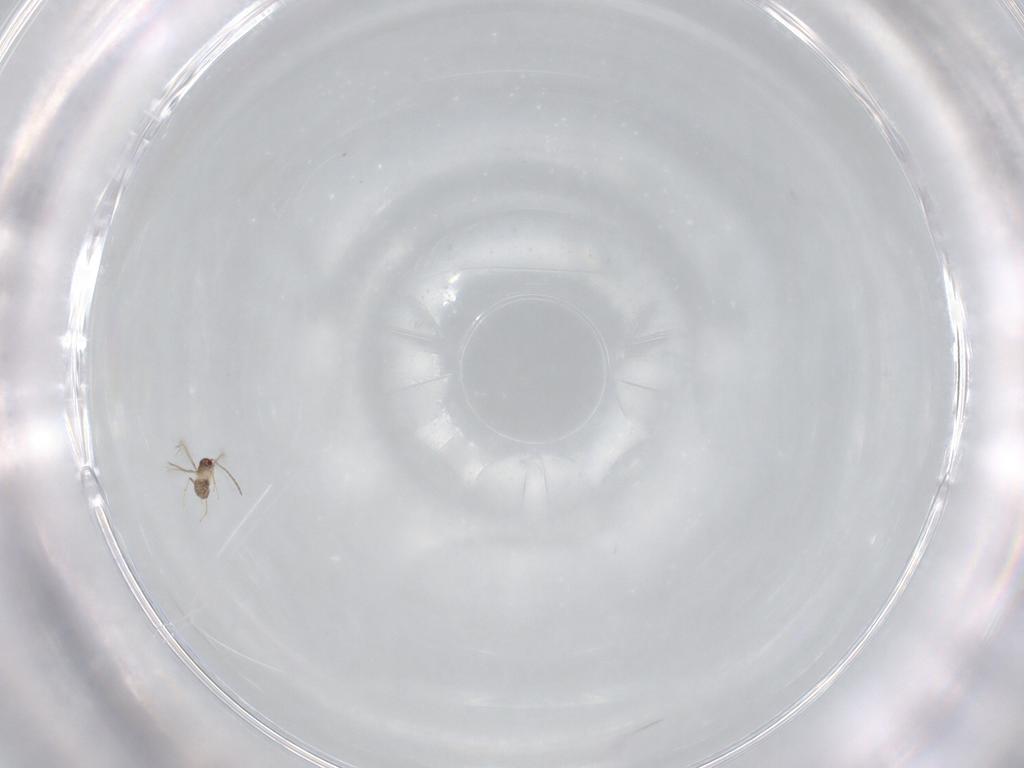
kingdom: Animalia
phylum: Arthropoda
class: Insecta
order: Hymenoptera
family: Mymaridae
